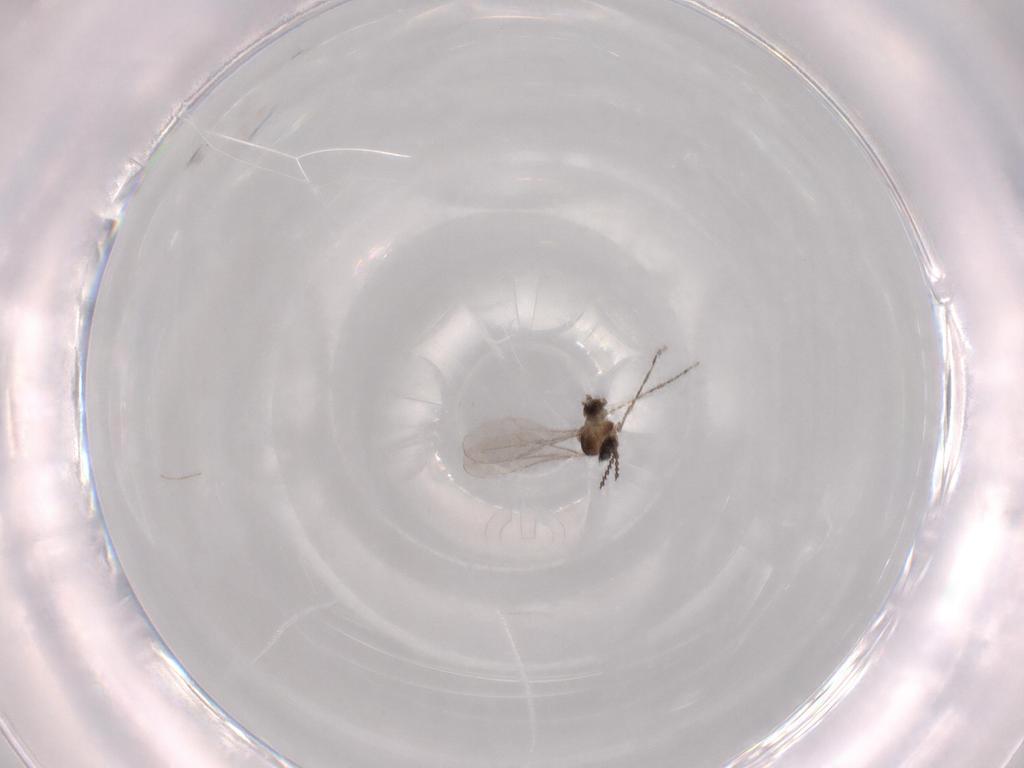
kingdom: Animalia
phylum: Arthropoda
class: Insecta
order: Diptera
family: Cecidomyiidae
